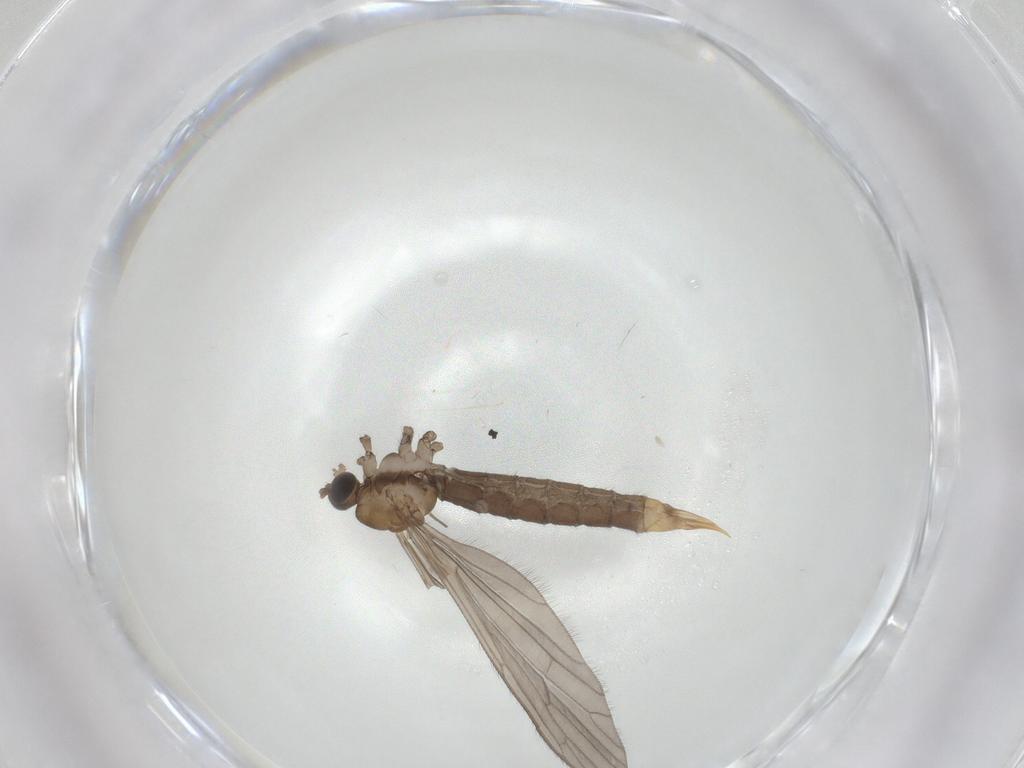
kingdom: Animalia
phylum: Arthropoda
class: Insecta
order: Diptera
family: Limoniidae
